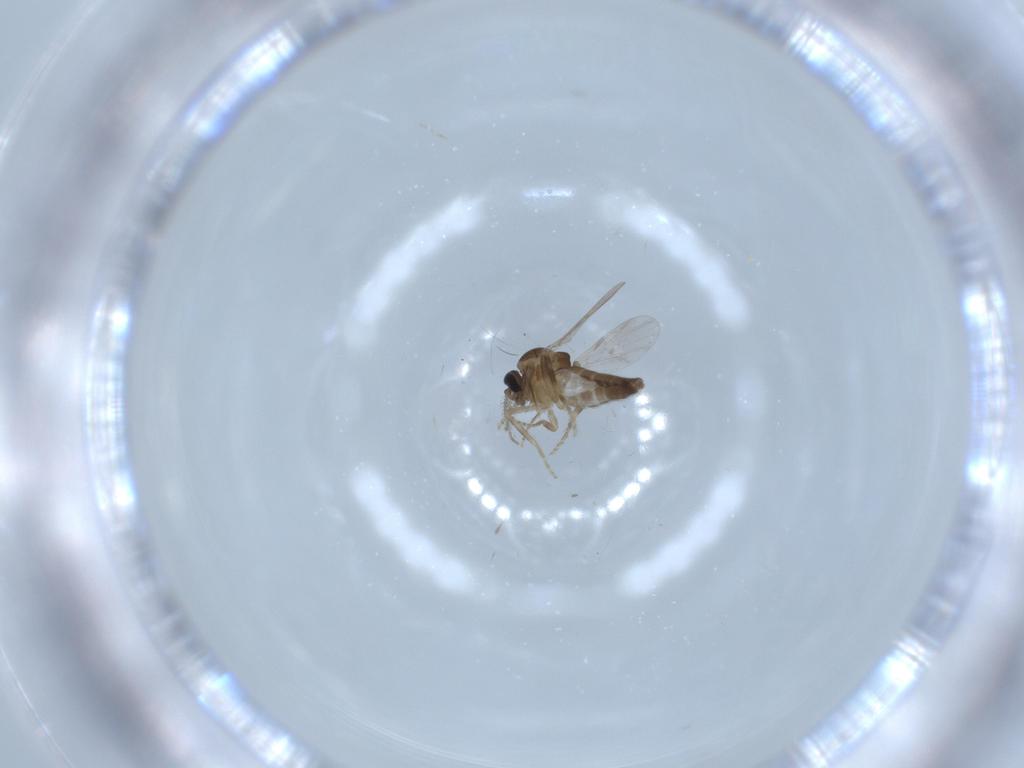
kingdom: Animalia
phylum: Arthropoda
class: Insecta
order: Diptera
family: Ceratopogonidae
